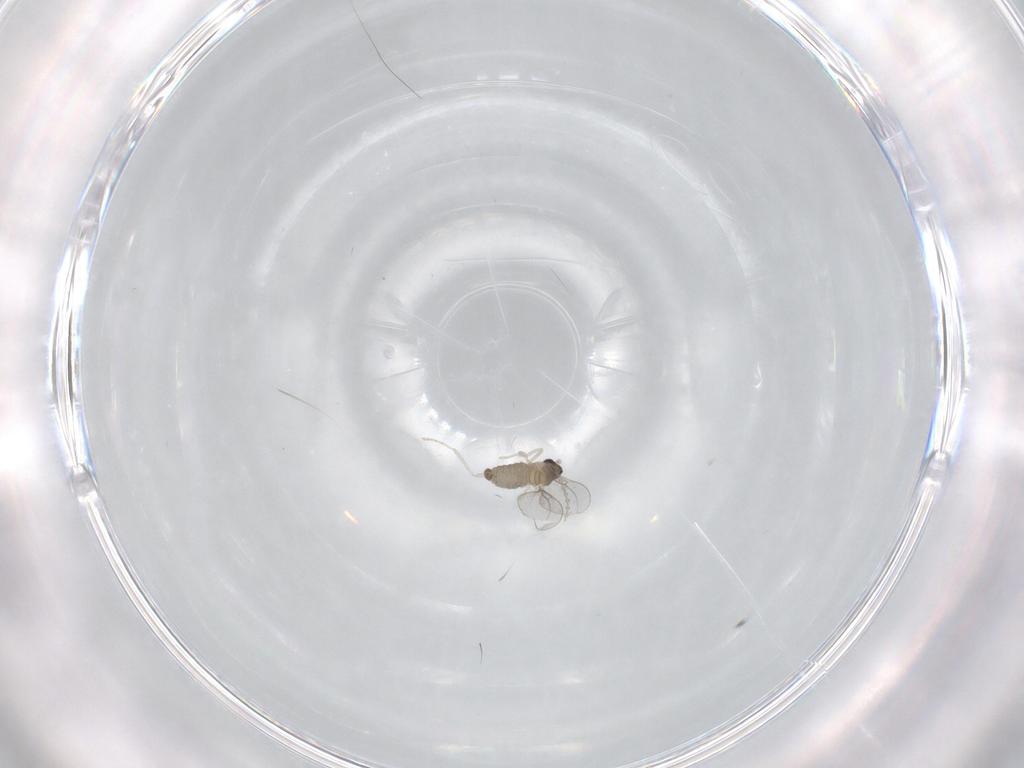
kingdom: Animalia
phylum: Arthropoda
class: Insecta
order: Diptera
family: Cecidomyiidae
